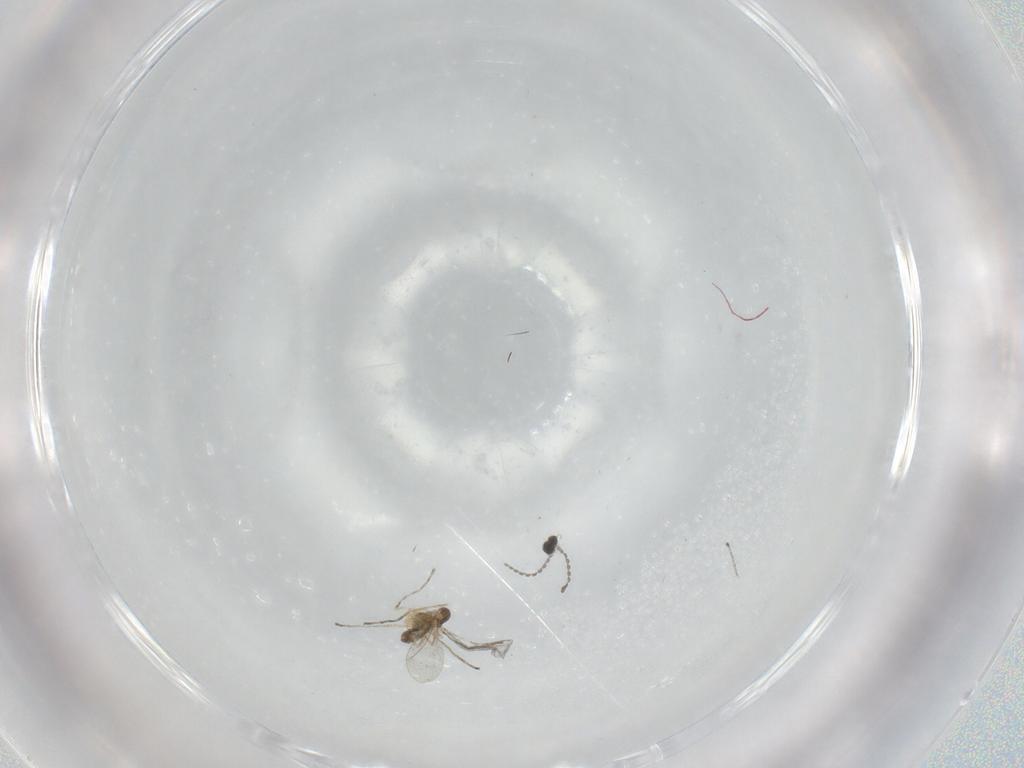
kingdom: Animalia
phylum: Arthropoda
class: Insecta
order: Diptera
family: Cecidomyiidae
